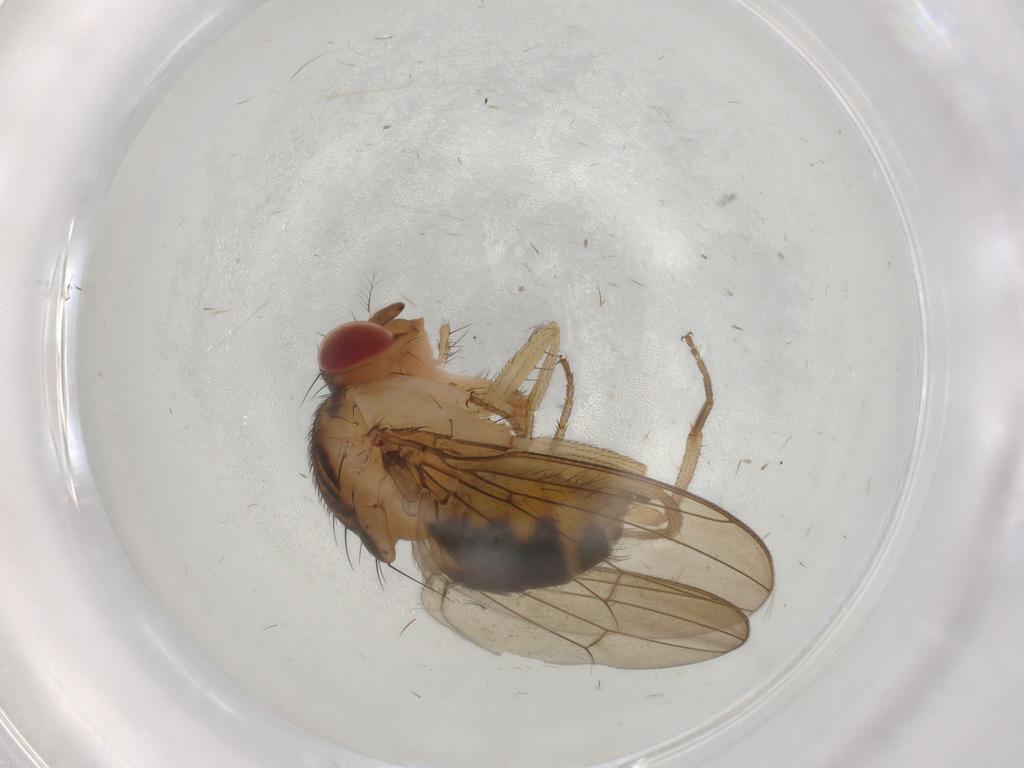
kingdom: Animalia
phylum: Arthropoda
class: Insecta
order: Diptera
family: Drosophilidae
